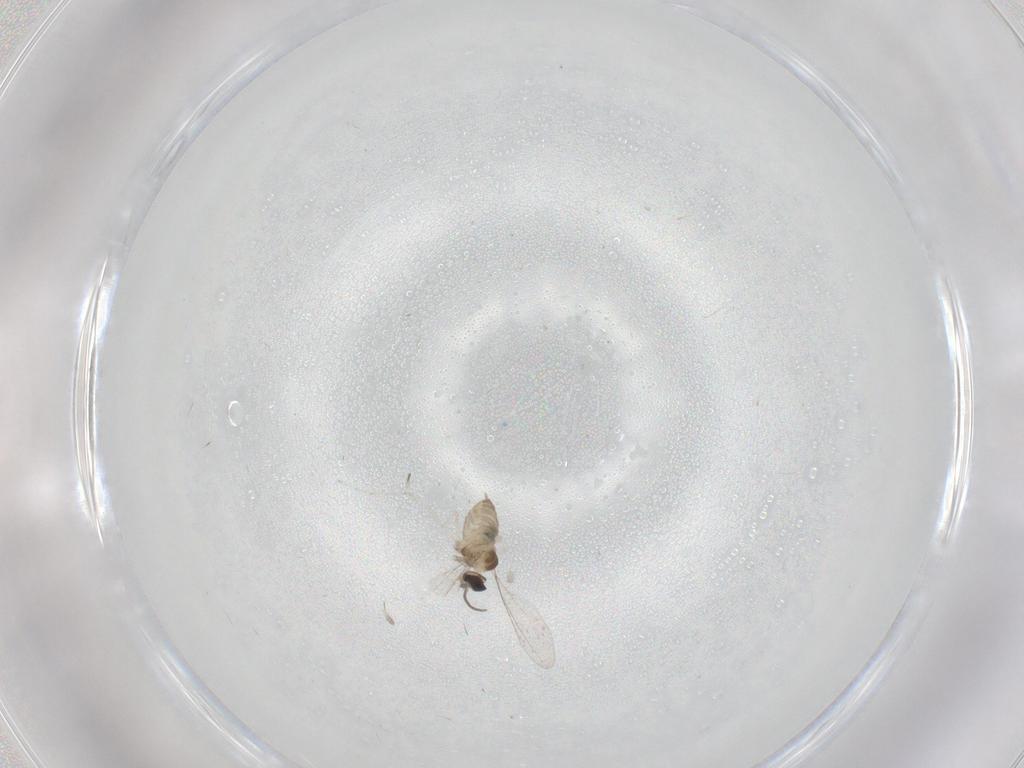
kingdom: Animalia
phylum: Arthropoda
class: Insecta
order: Diptera
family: Cecidomyiidae
